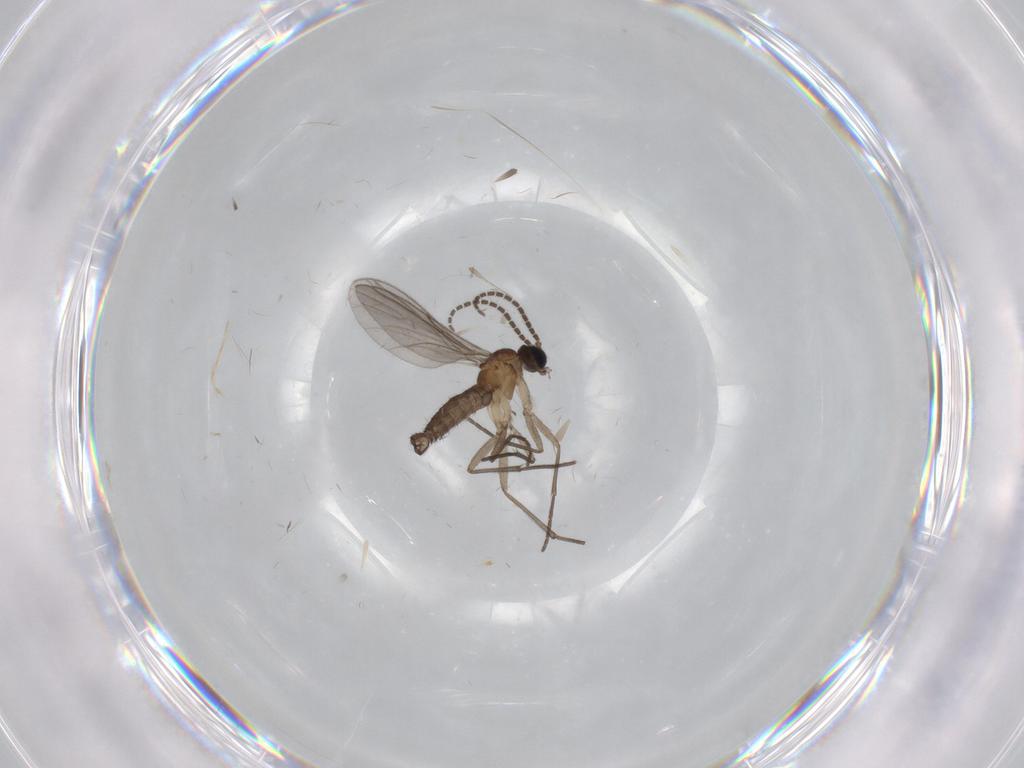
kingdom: Animalia
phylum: Arthropoda
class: Insecta
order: Diptera
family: Sciaridae
